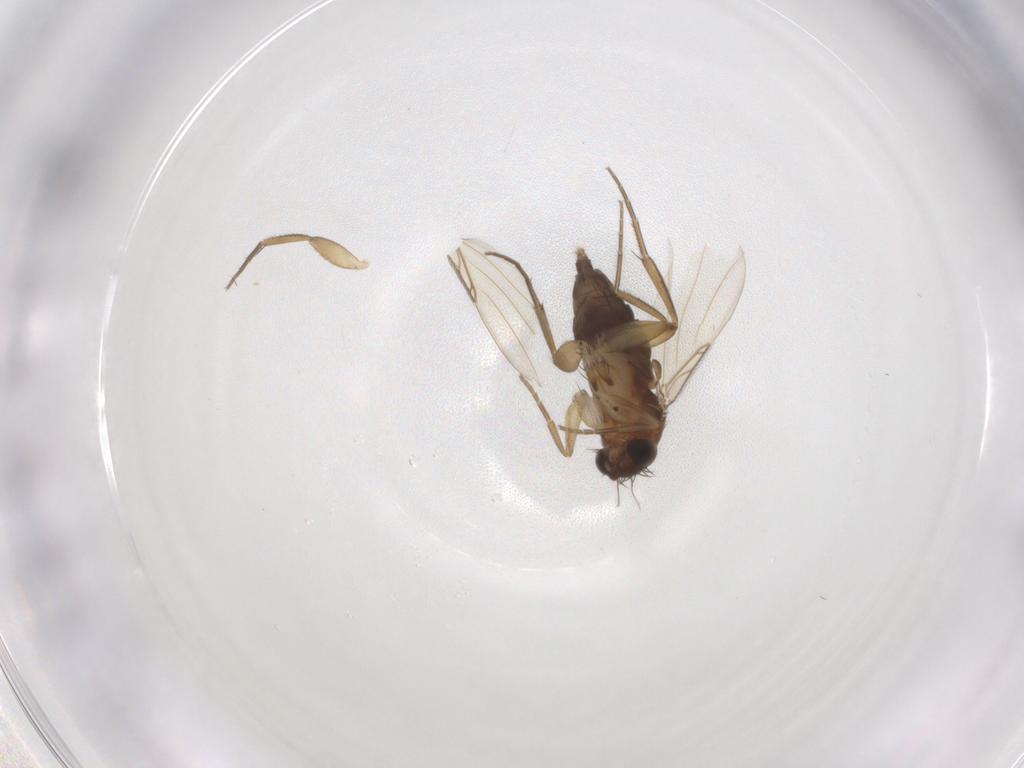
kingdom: Animalia
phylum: Arthropoda
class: Insecta
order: Diptera
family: Phoridae
